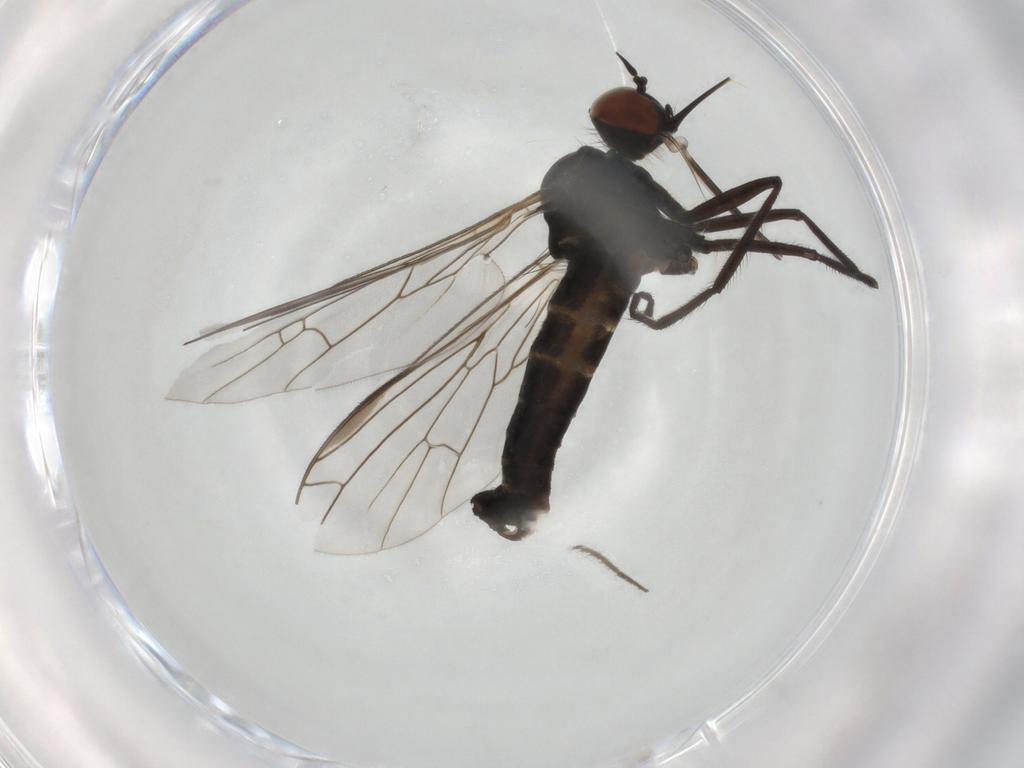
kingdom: Animalia
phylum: Arthropoda
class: Insecta
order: Diptera
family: Empididae
